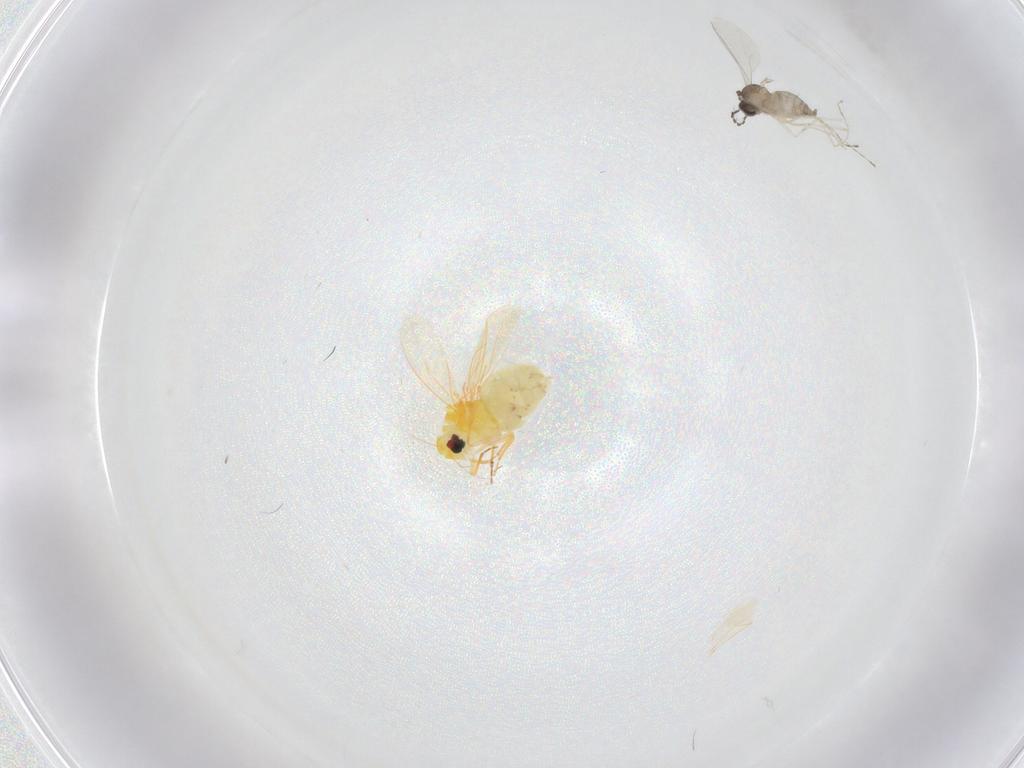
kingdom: Animalia
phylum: Arthropoda
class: Insecta
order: Hemiptera
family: Aleyrodidae
